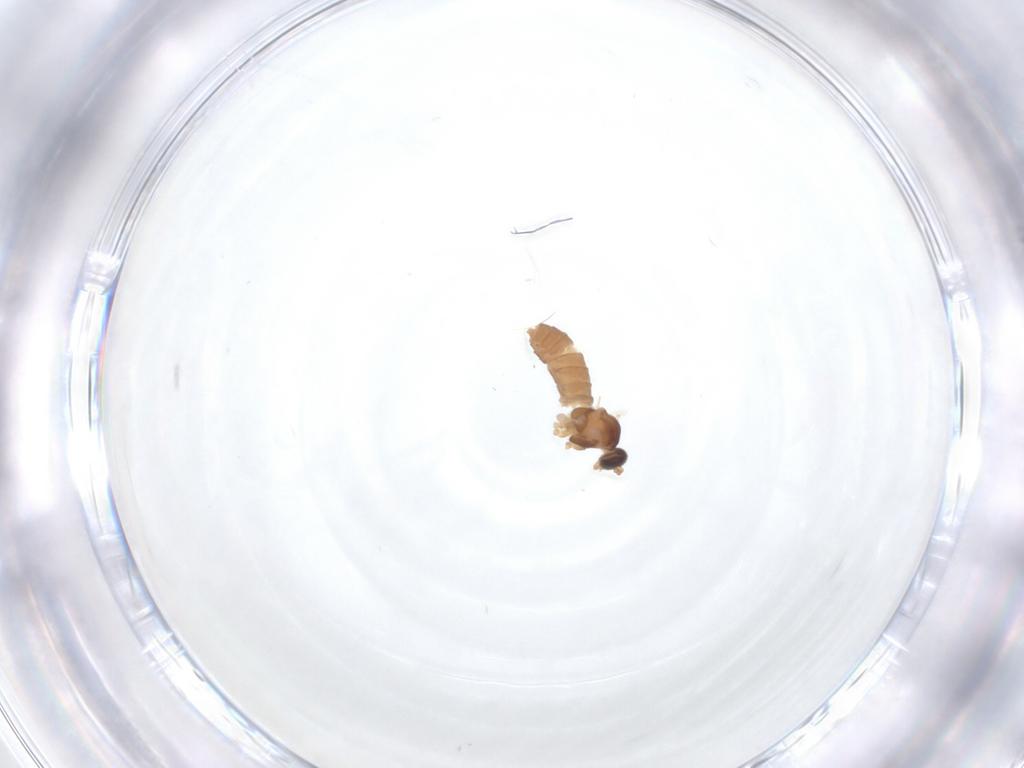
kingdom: Animalia
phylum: Arthropoda
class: Insecta
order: Diptera
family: Cecidomyiidae
